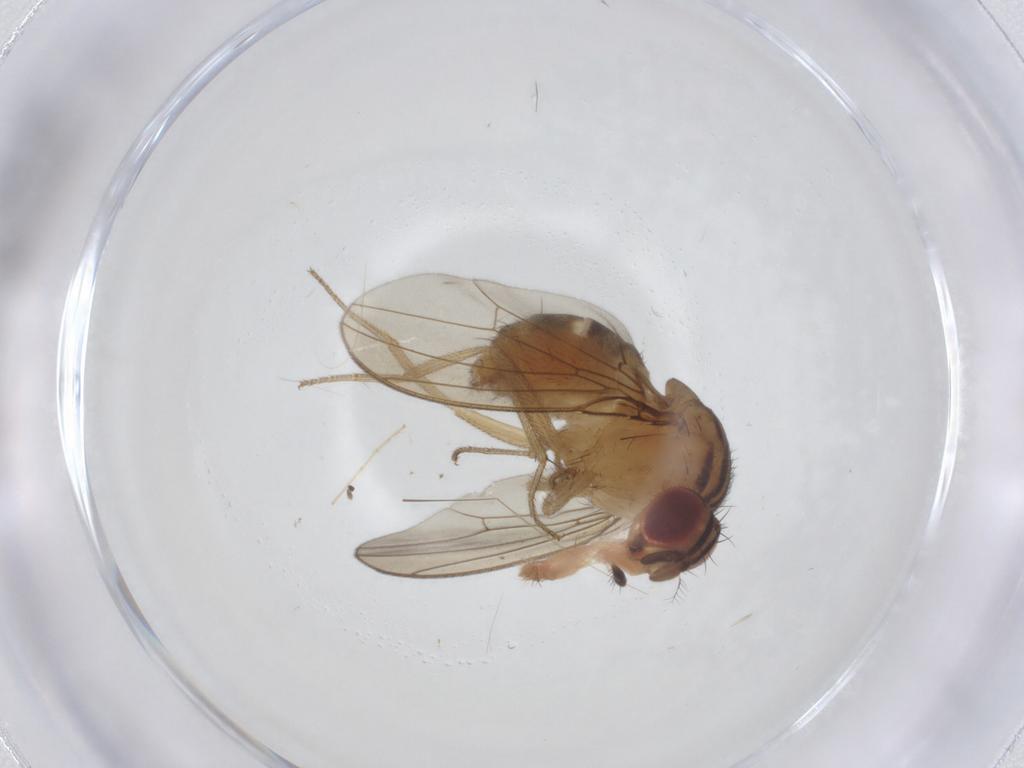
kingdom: Animalia
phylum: Arthropoda
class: Insecta
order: Diptera
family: Drosophilidae
